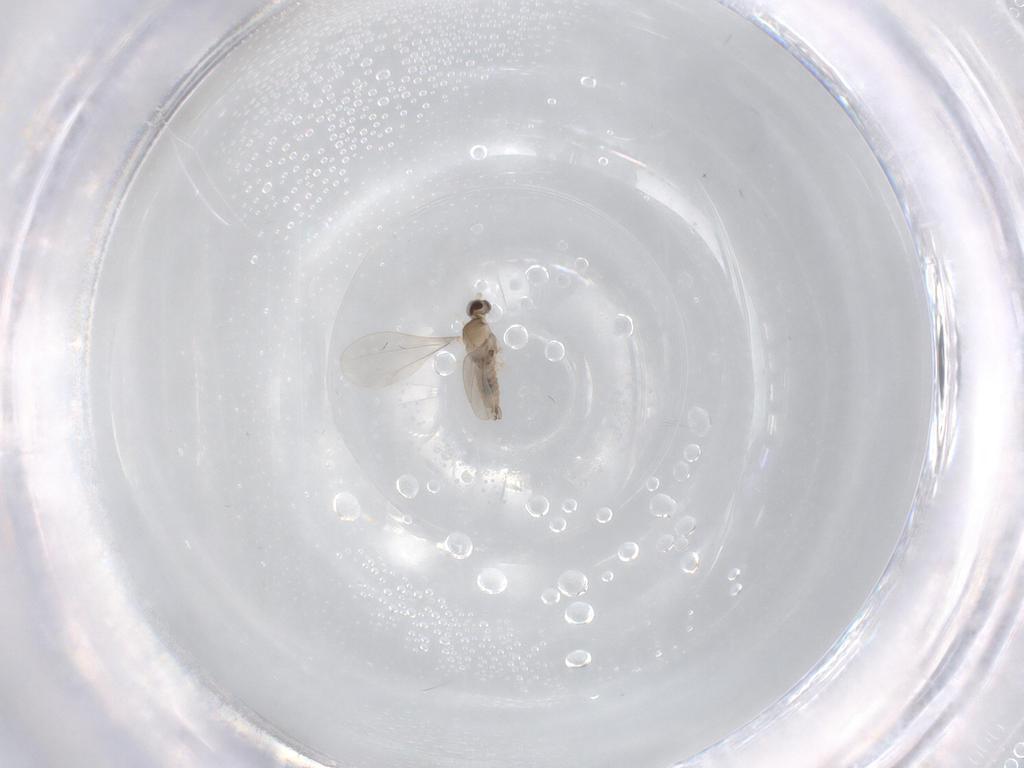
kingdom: Animalia
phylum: Arthropoda
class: Insecta
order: Diptera
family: Cecidomyiidae
